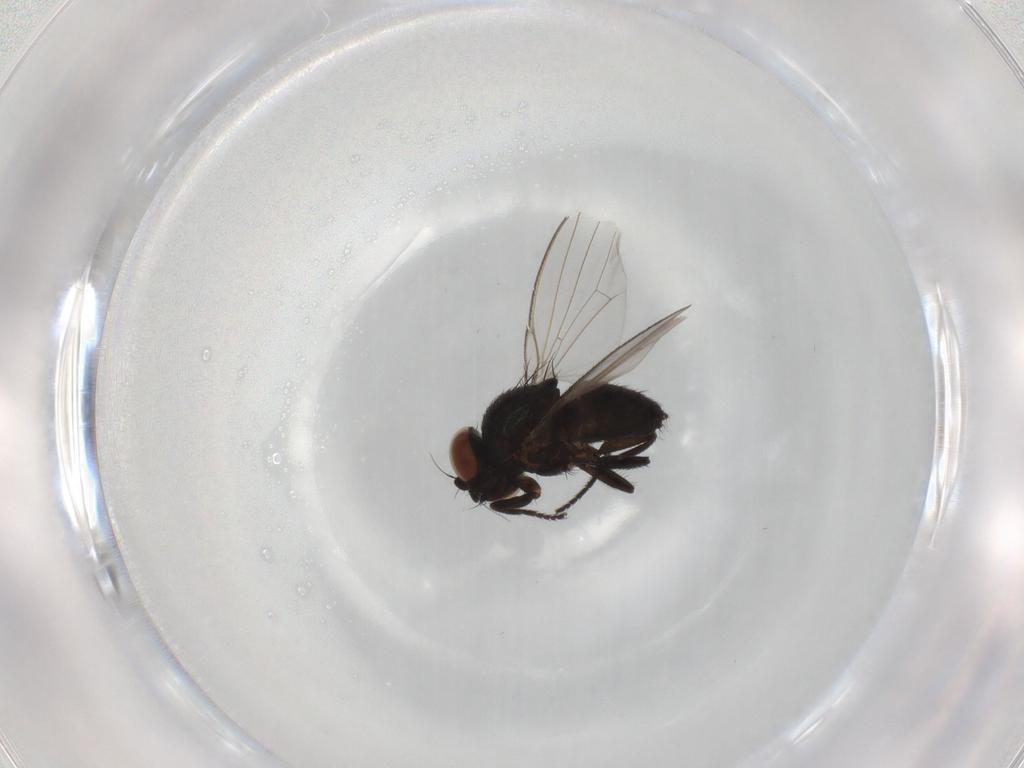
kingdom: Animalia
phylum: Arthropoda
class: Insecta
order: Diptera
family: Milichiidae
